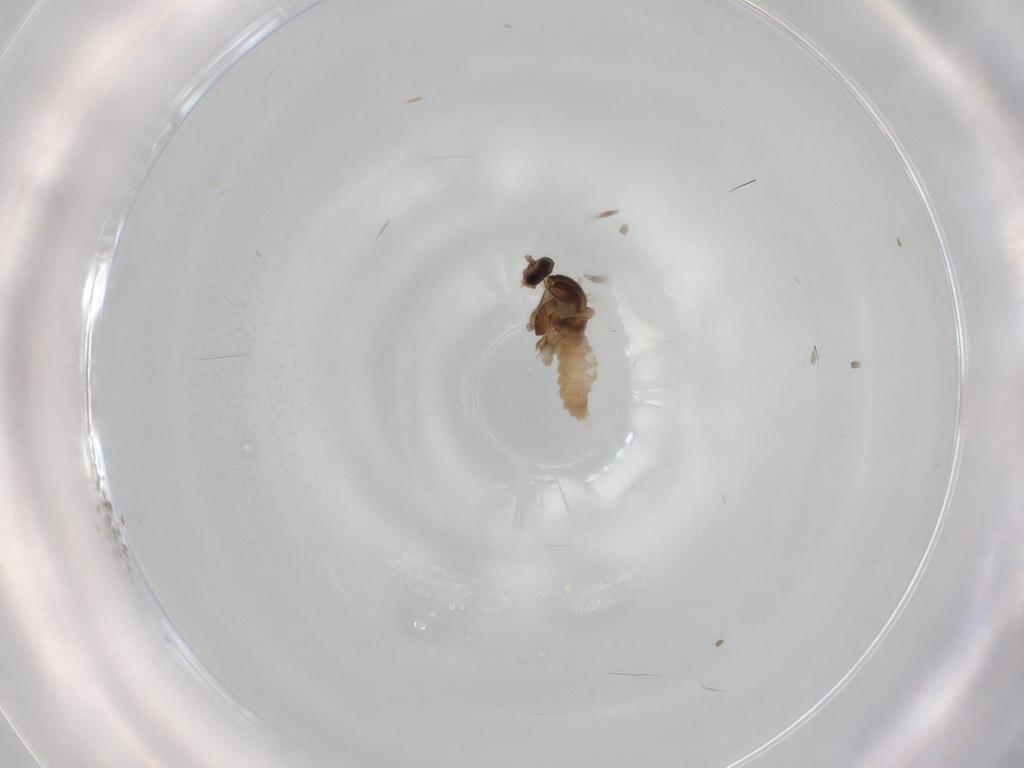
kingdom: Animalia
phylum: Arthropoda
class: Insecta
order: Diptera
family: Cecidomyiidae
